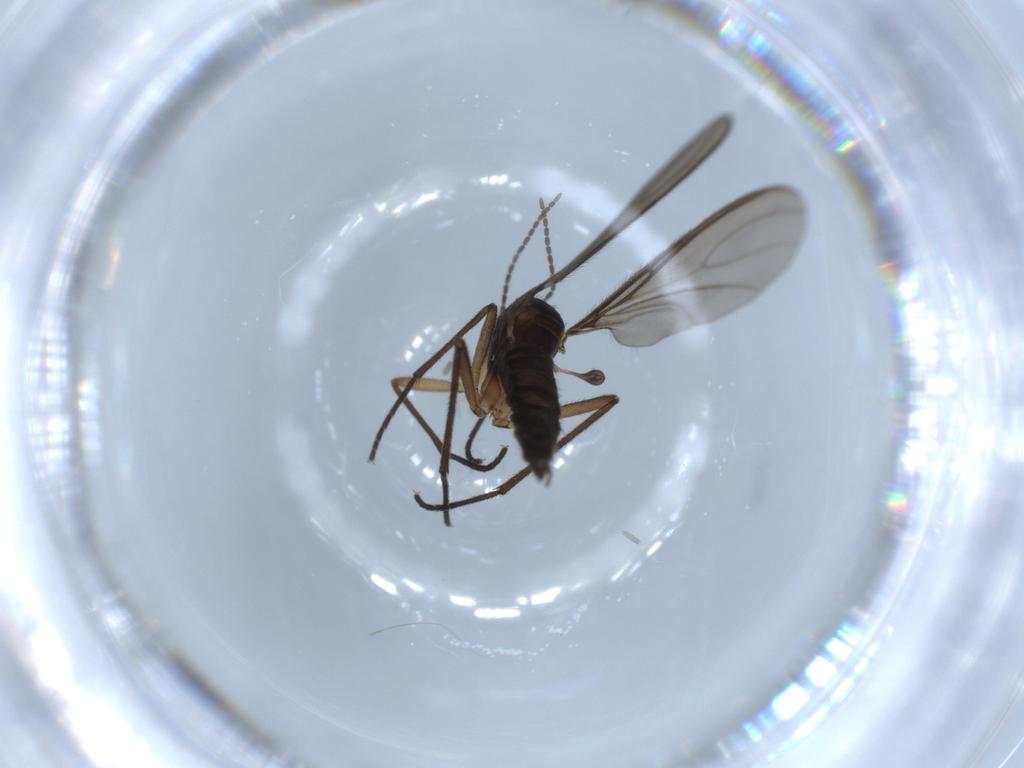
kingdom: Animalia
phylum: Arthropoda
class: Insecta
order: Diptera
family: Sciaridae
